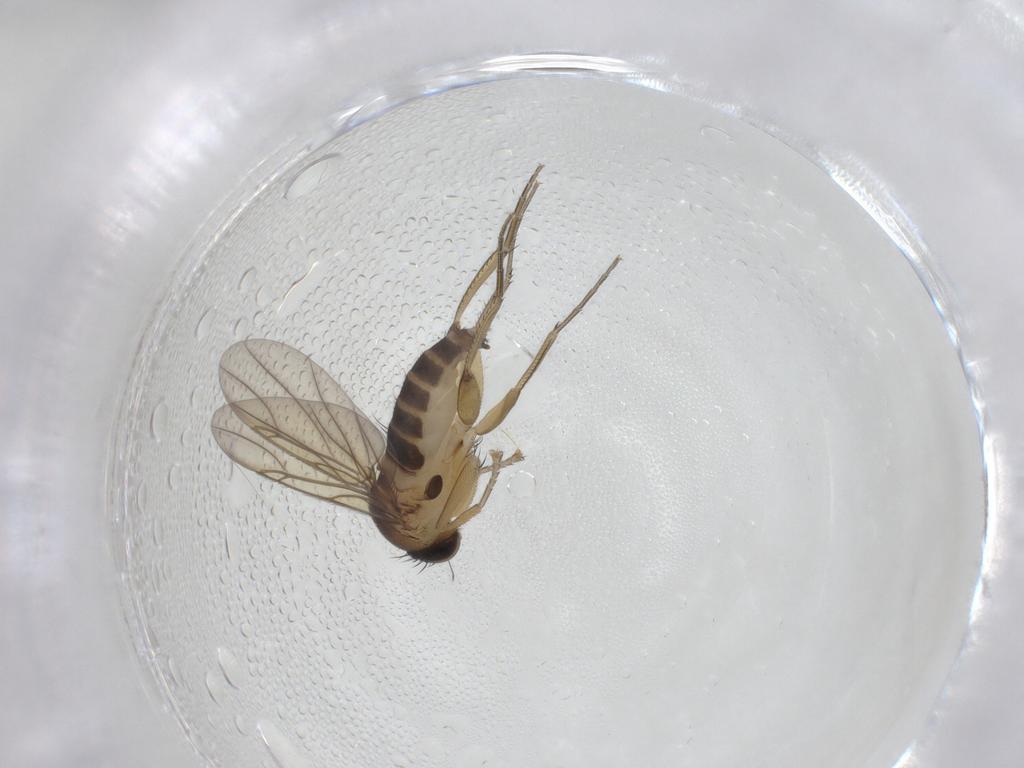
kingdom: Animalia
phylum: Arthropoda
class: Insecta
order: Diptera
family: Phoridae
